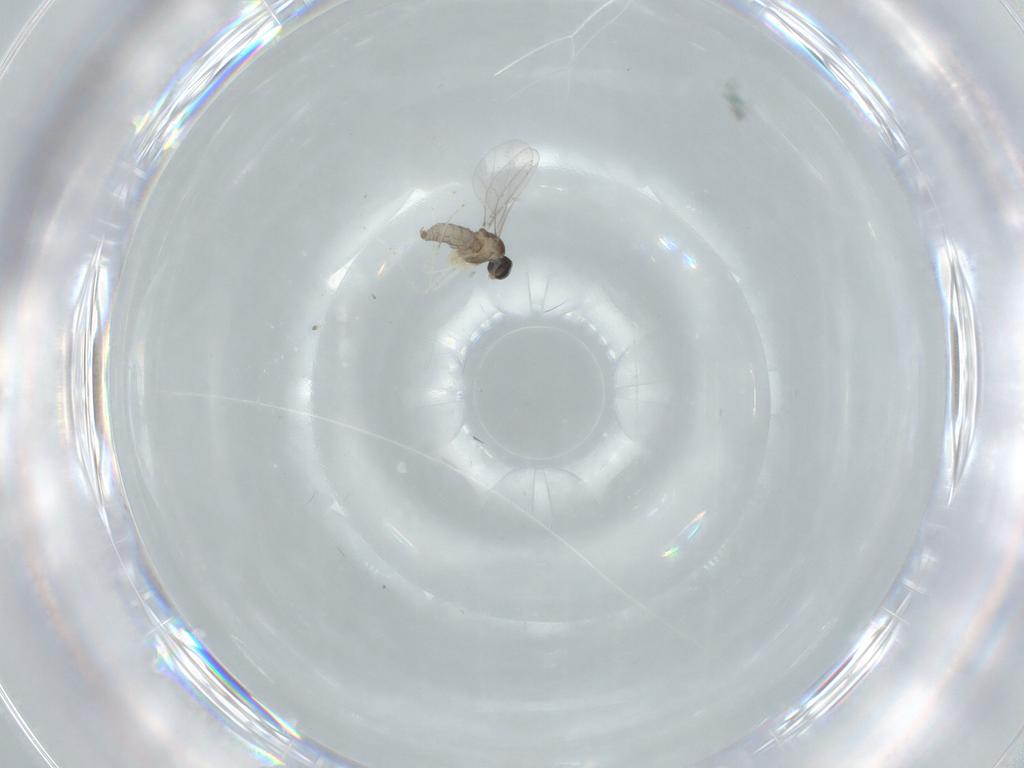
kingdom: Animalia
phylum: Arthropoda
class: Insecta
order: Diptera
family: Cecidomyiidae
